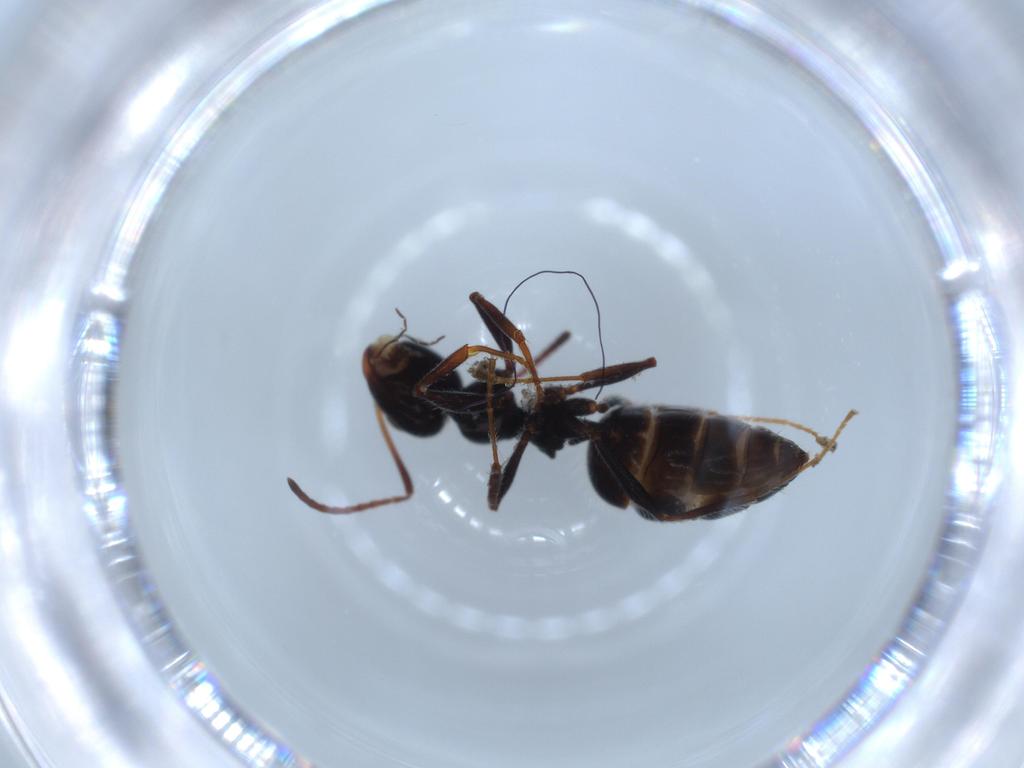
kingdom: Animalia
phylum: Arthropoda
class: Insecta
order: Hymenoptera
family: Formicidae
